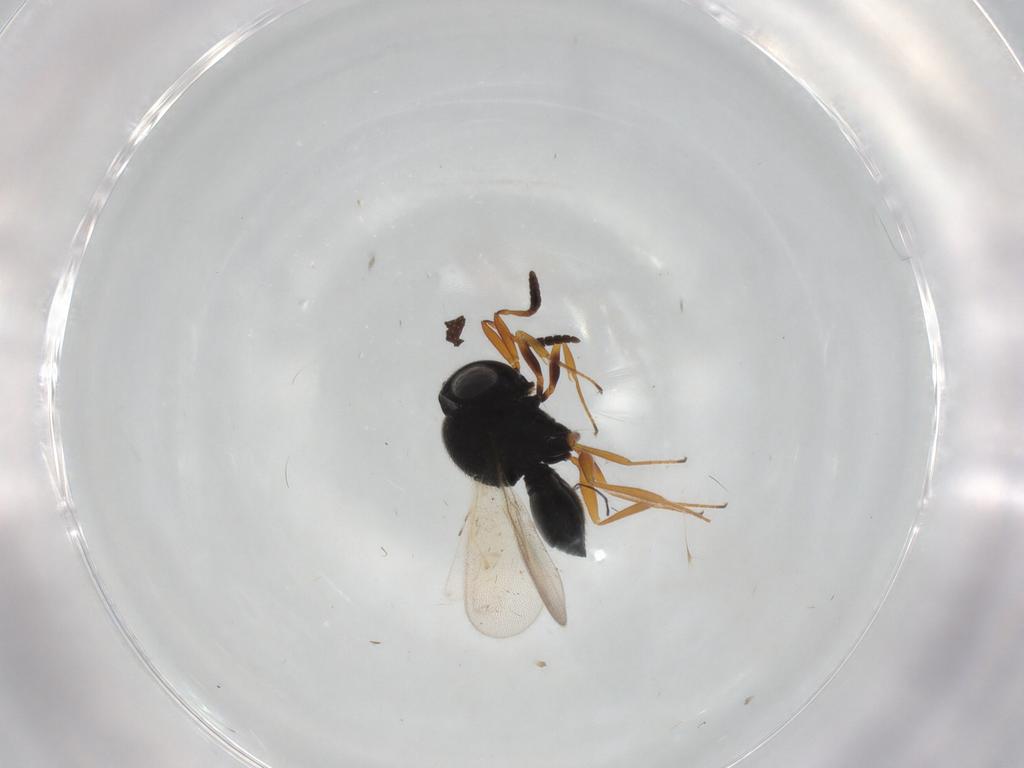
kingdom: Animalia
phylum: Arthropoda
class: Insecta
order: Hymenoptera
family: Scelionidae
